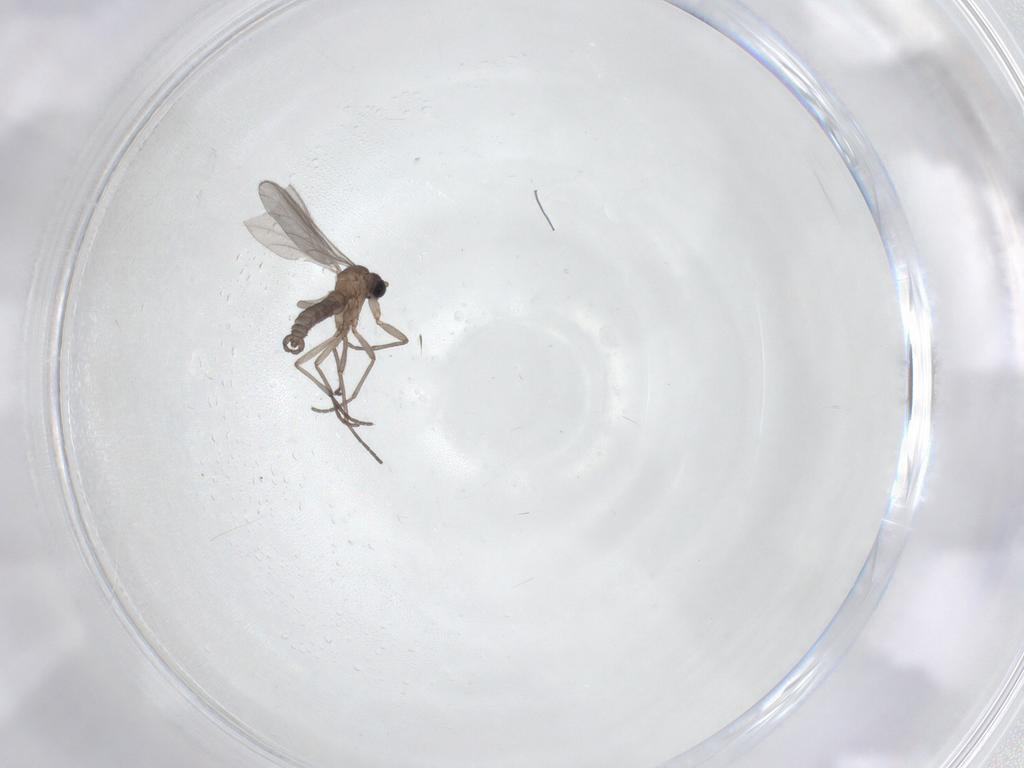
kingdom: Animalia
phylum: Arthropoda
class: Insecta
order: Diptera
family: Sciaridae
